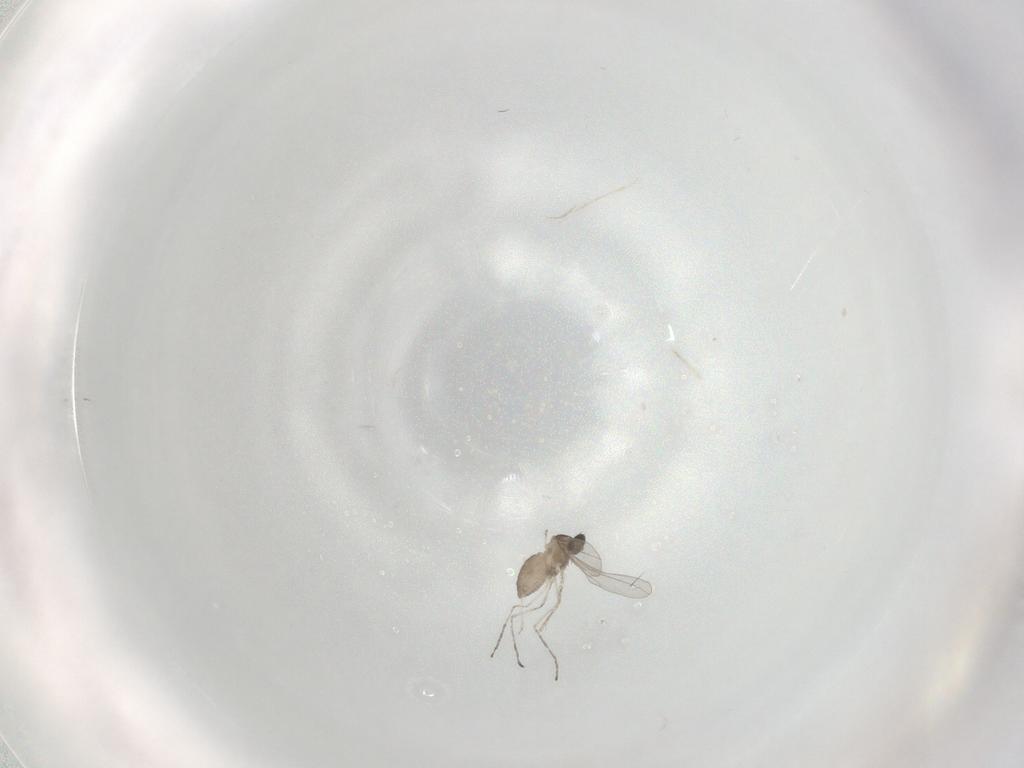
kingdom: Animalia
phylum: Arthropoda
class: Insecta
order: Diptera
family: Cecidomyiidae
